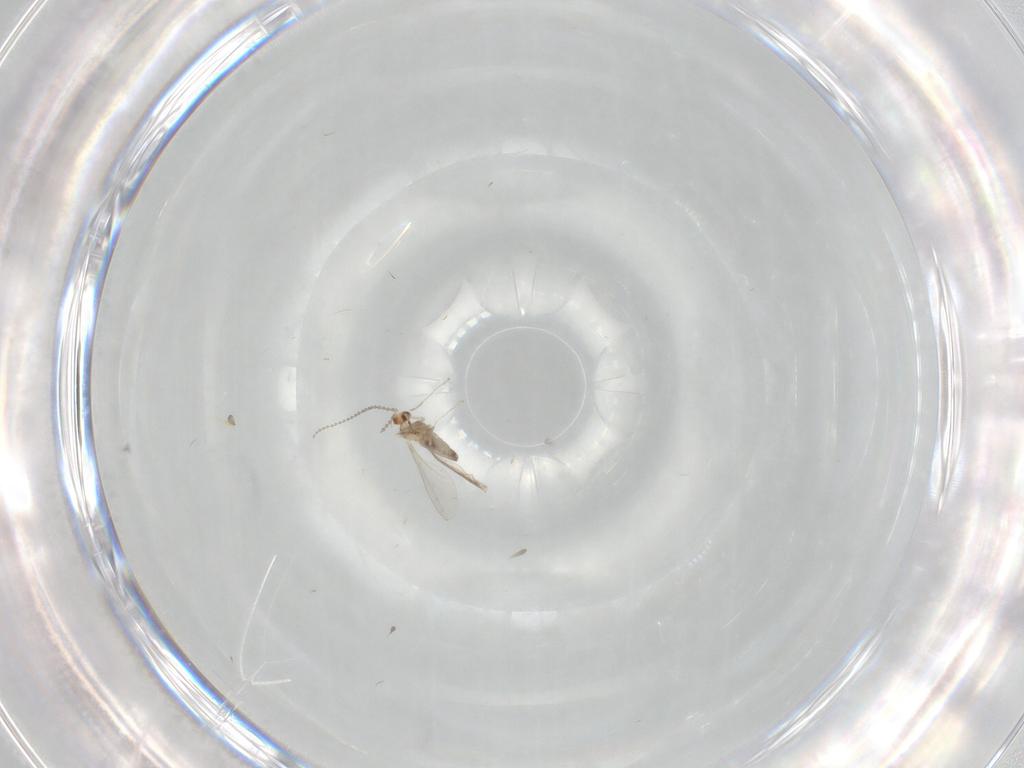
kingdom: Animalia
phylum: Arthropoda
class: Insecta
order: Diptera
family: Cecidomyiidae
